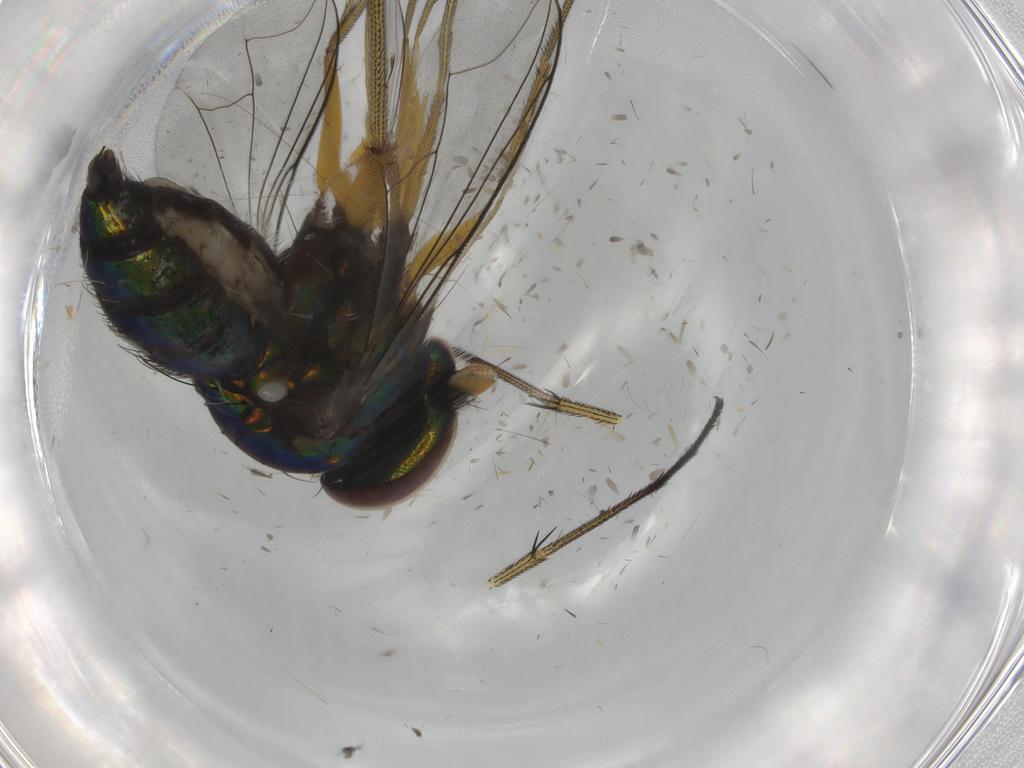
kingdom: Animalia
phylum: Arthropoda
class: Insecta
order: Diptera
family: Dolichopodidae
